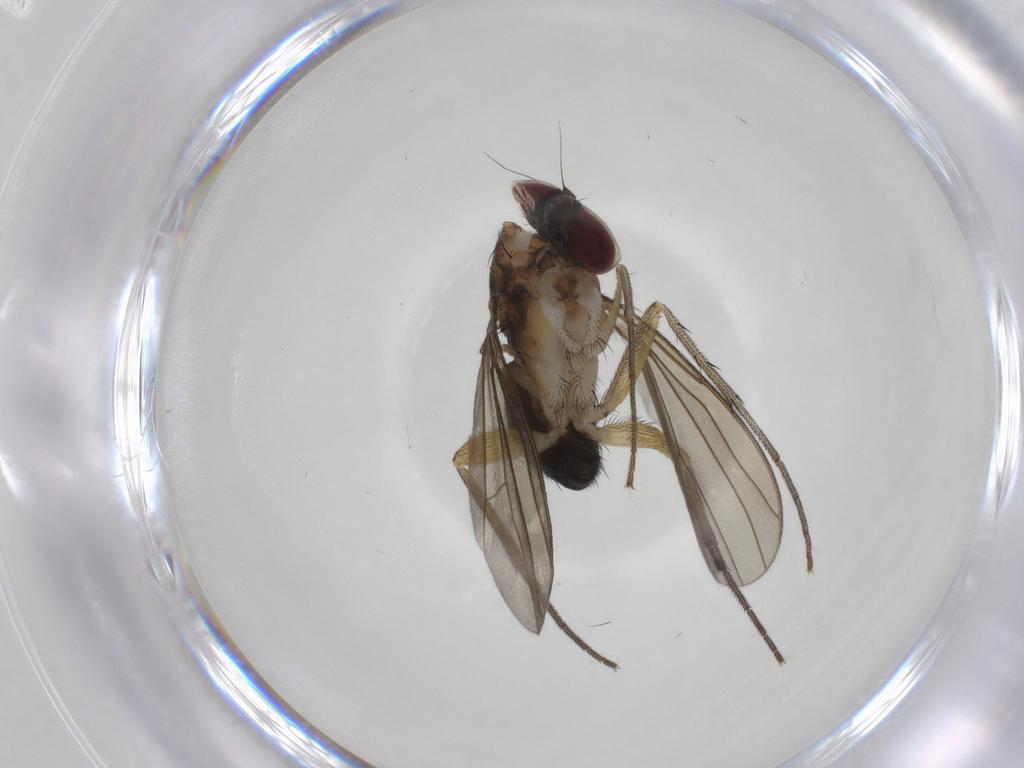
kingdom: Animalia
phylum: Arthropoda
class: Insecta
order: Diptera
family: Dolichopodidae
